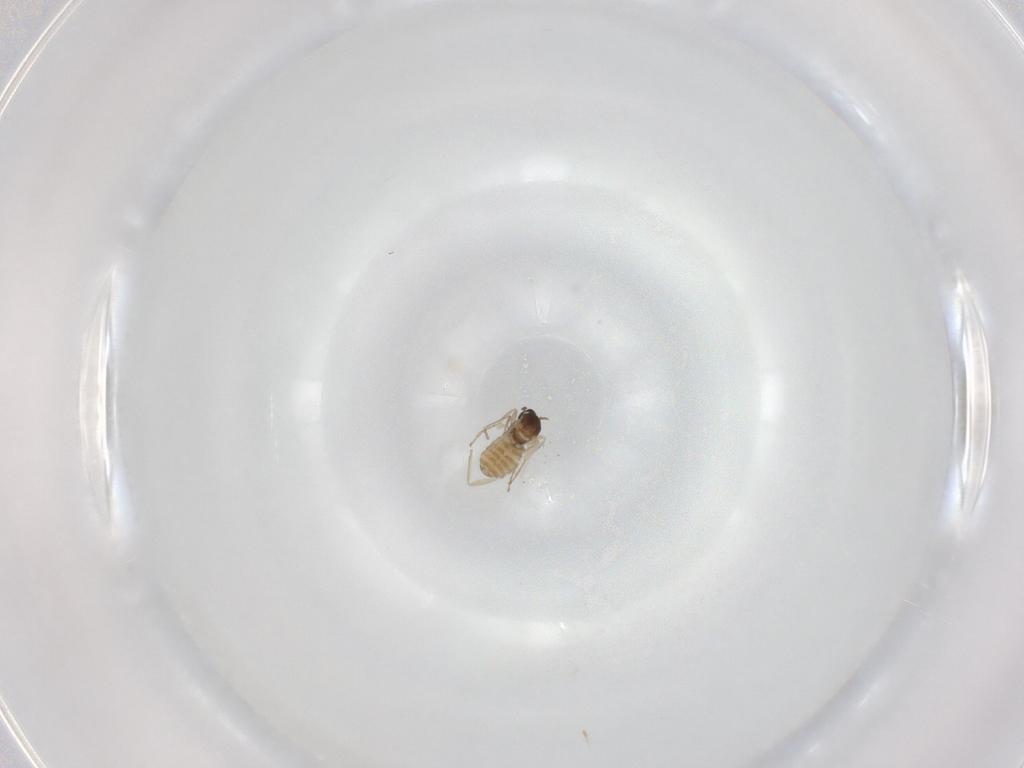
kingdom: Animalia
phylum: Arthropoda
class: Insecta
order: Diptera
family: Cecidomyiidae
